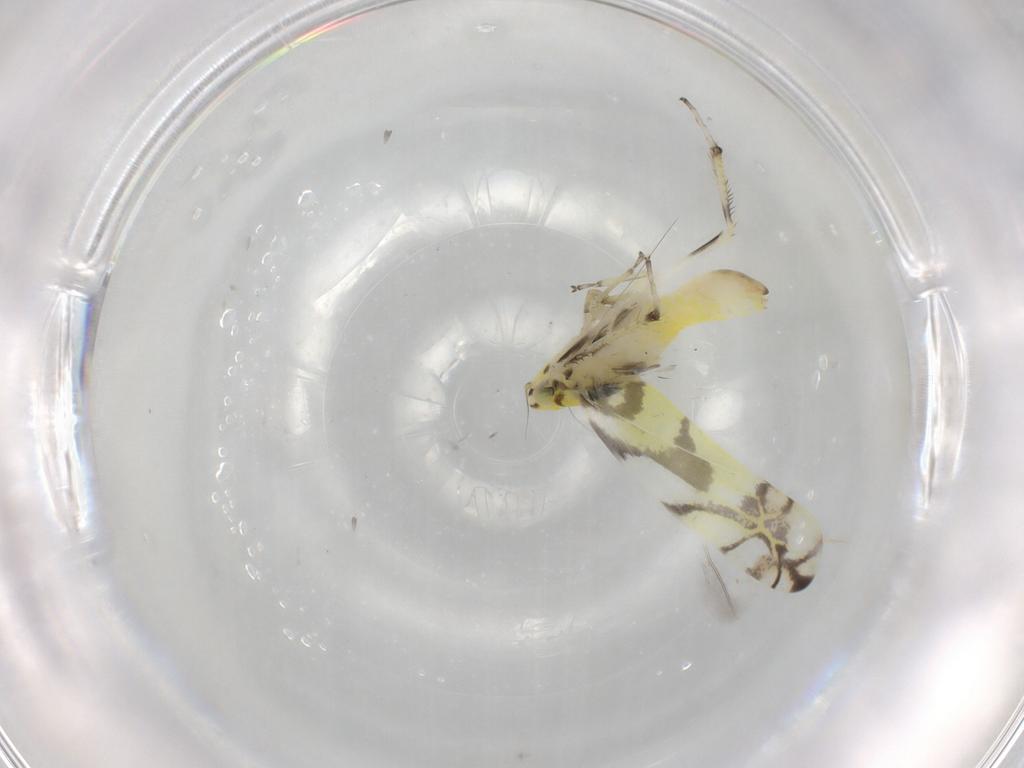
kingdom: Animalia
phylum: Arthropoda
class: Insecta
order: Hemiptera
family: Cicadellidae
